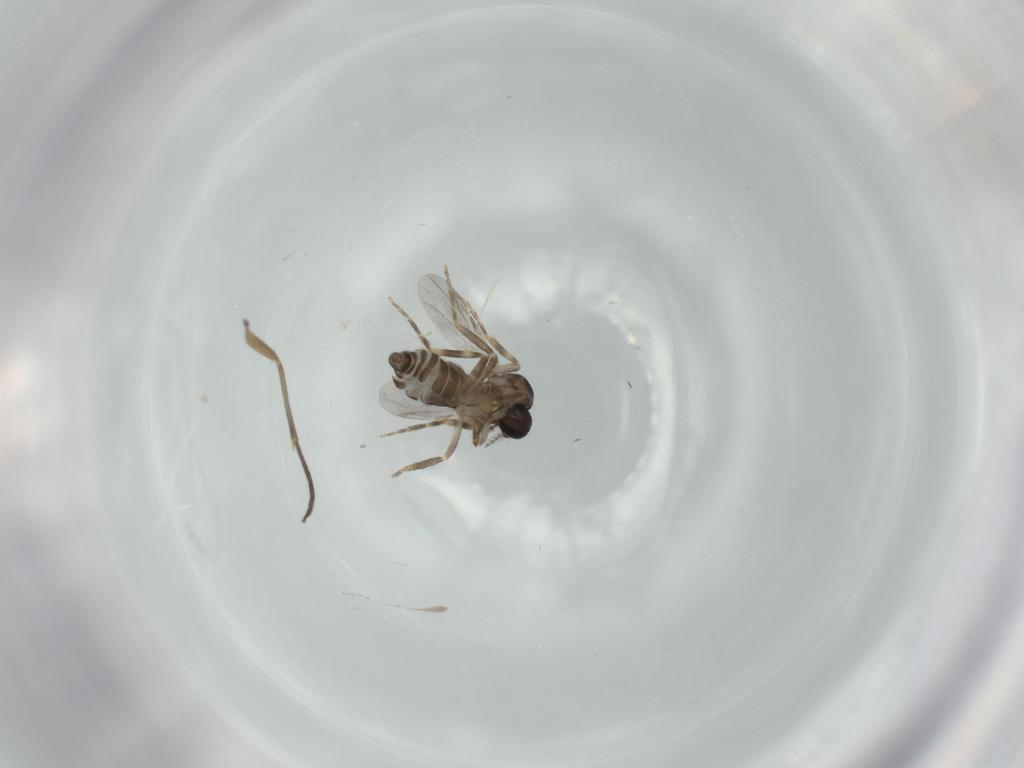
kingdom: Animalia
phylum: Arthropoda
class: Insecta
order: Diptera
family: Ceratopogonidae
